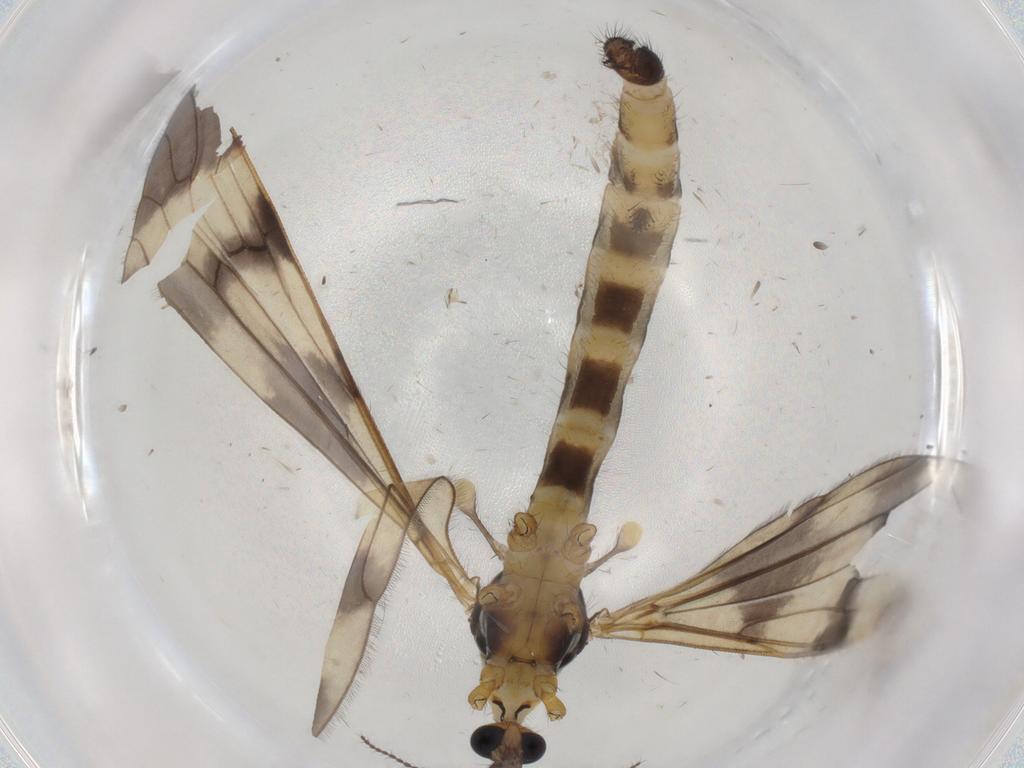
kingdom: Animalia
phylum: Arthropoda
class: Insecta
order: Diptera
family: Limoniidae
